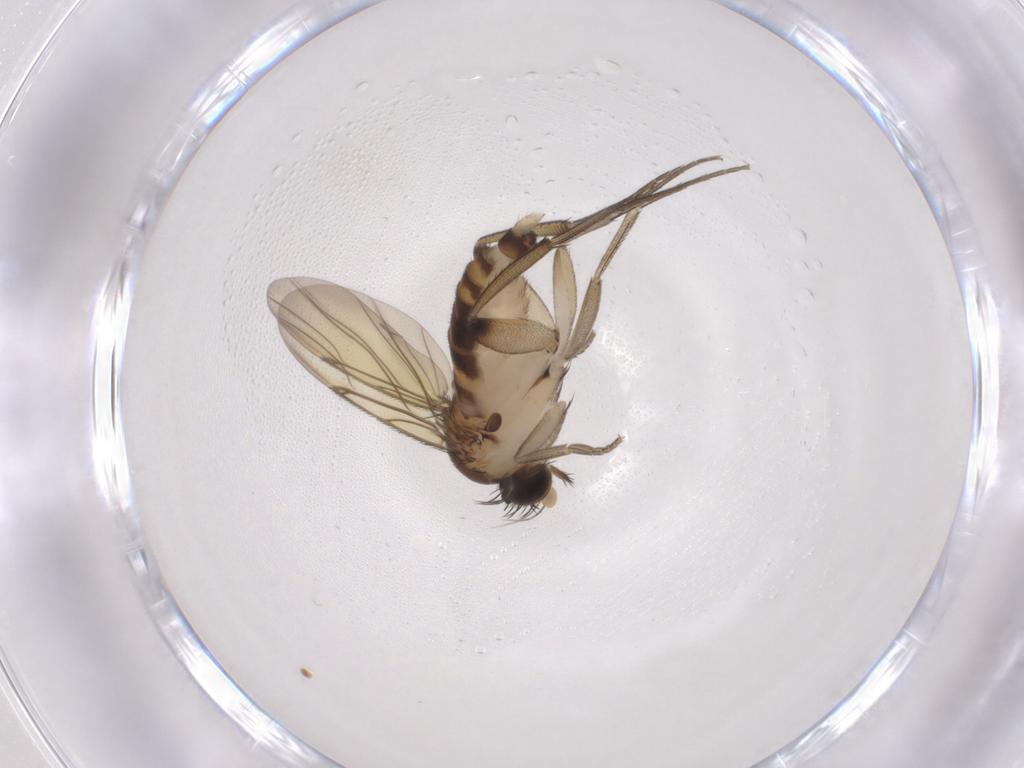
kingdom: Animalia
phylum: Arthropoda
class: Insecta
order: Diptera
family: Phoridae
